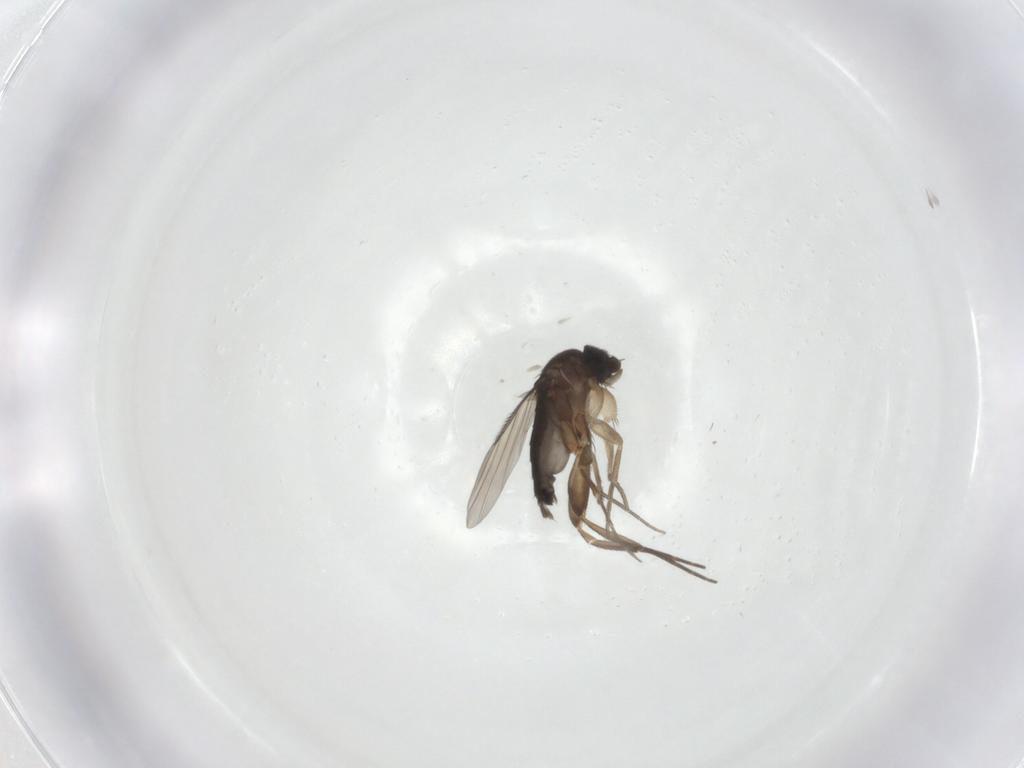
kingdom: Animalia
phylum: Arthropoda
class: Insecta
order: Diptera
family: Phoridae
